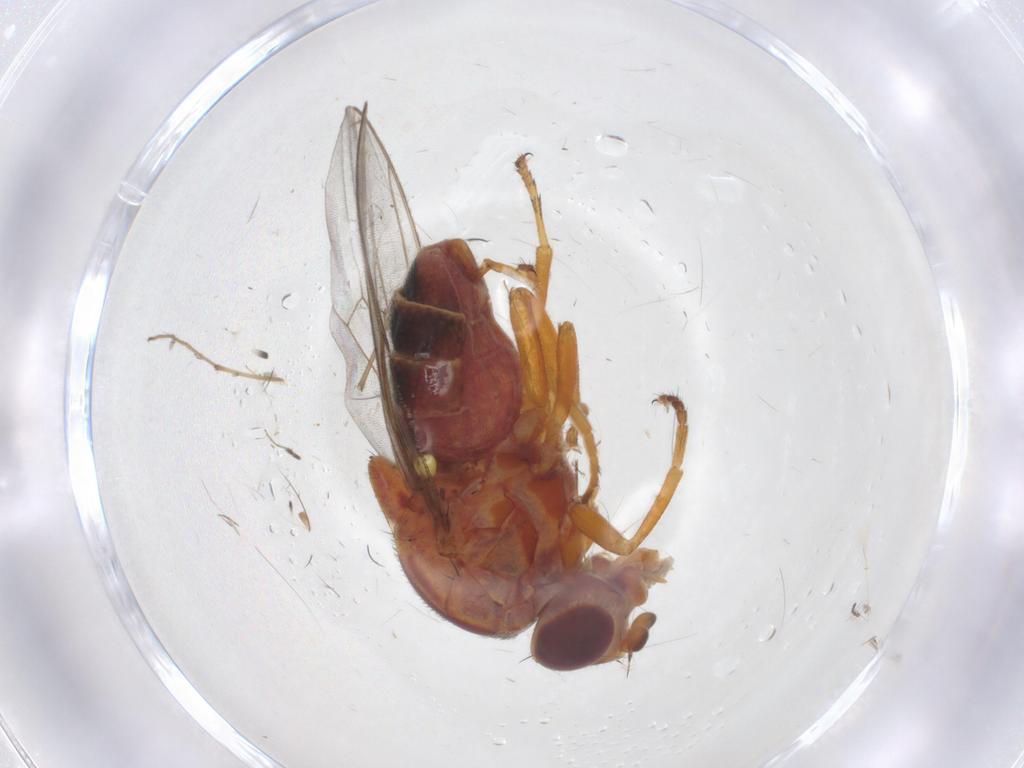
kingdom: Animalia
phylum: Arthropoda
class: Insecta
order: Diptera
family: Chloropidae
